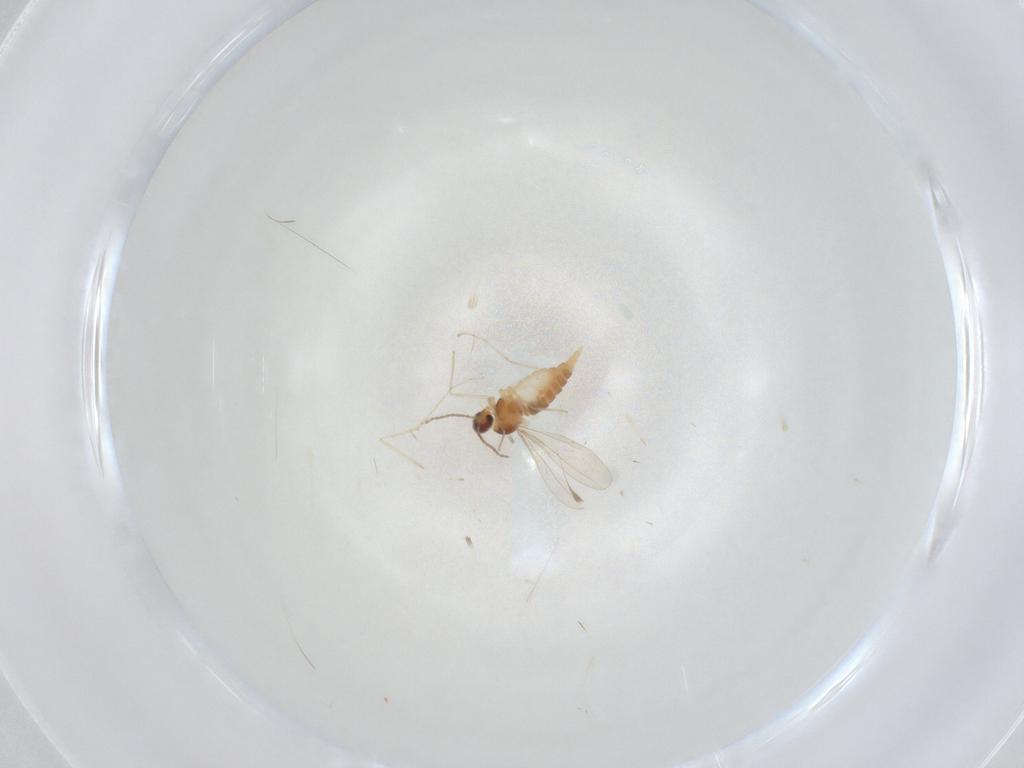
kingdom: Animalia
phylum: Arthropoda
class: Insecta
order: Diptera
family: Cecidomyiidae
